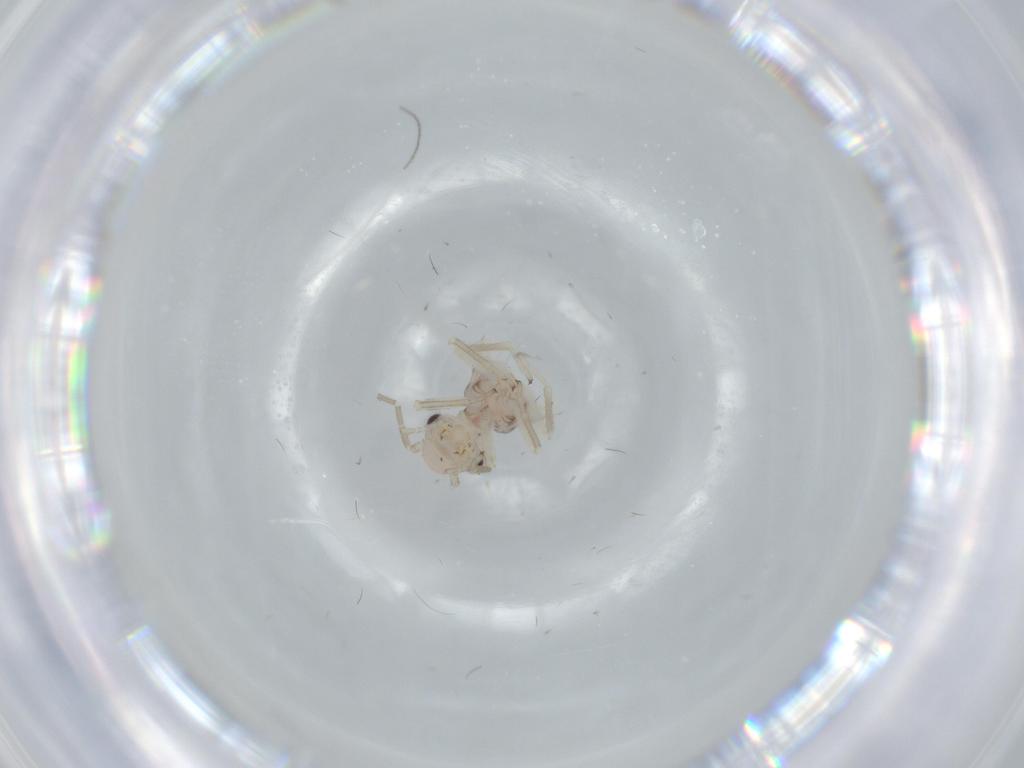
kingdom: Animalia
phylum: Arthropoda
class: Insecta
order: Psocodea
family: Ectopsocidae
